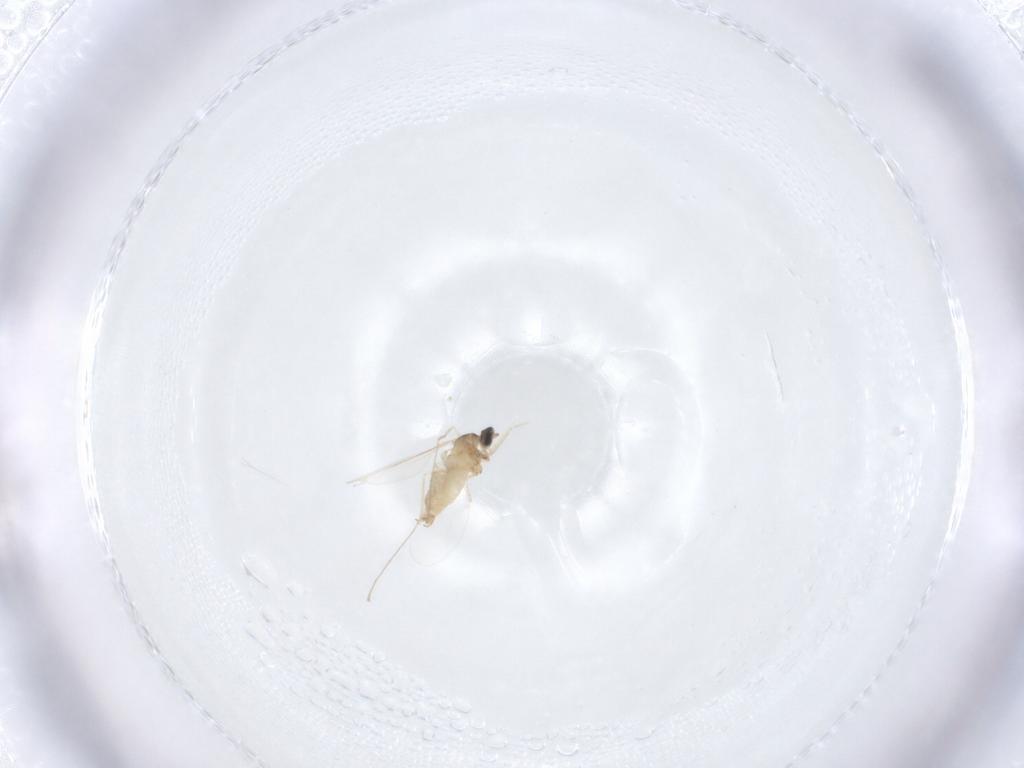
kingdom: Animalia
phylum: Arthropoda
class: Insecta
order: Diptera
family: Cecidomyiidae
